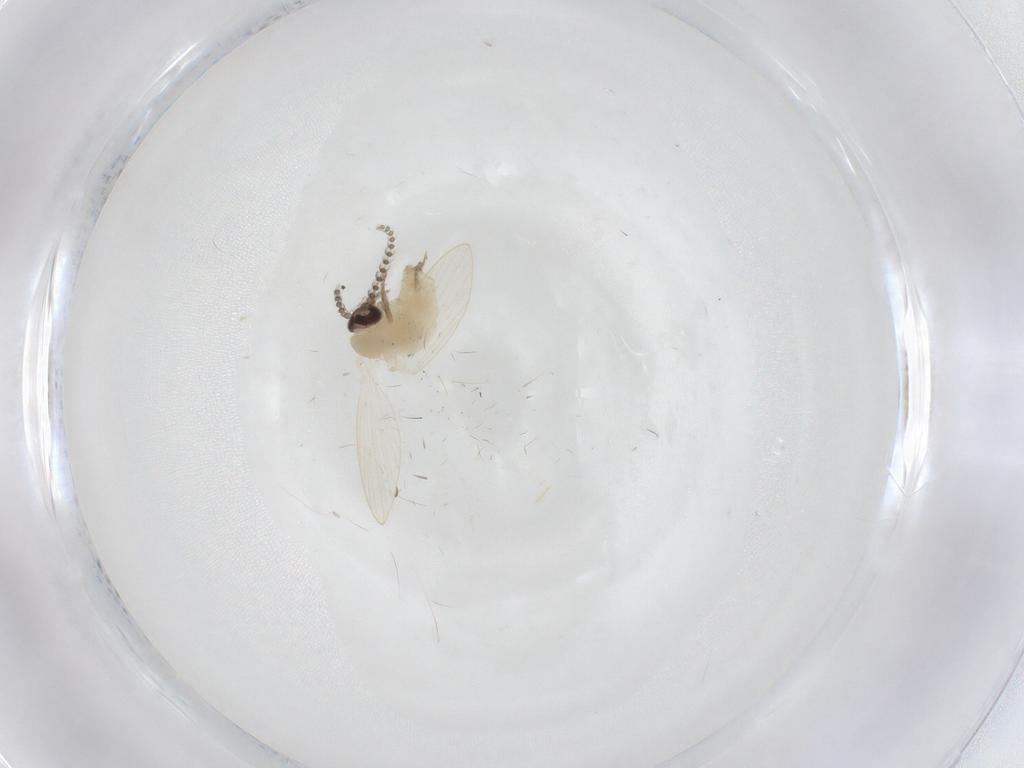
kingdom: Animalia
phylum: Arthropoda
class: Insecta
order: Diptera
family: Psychodidae
